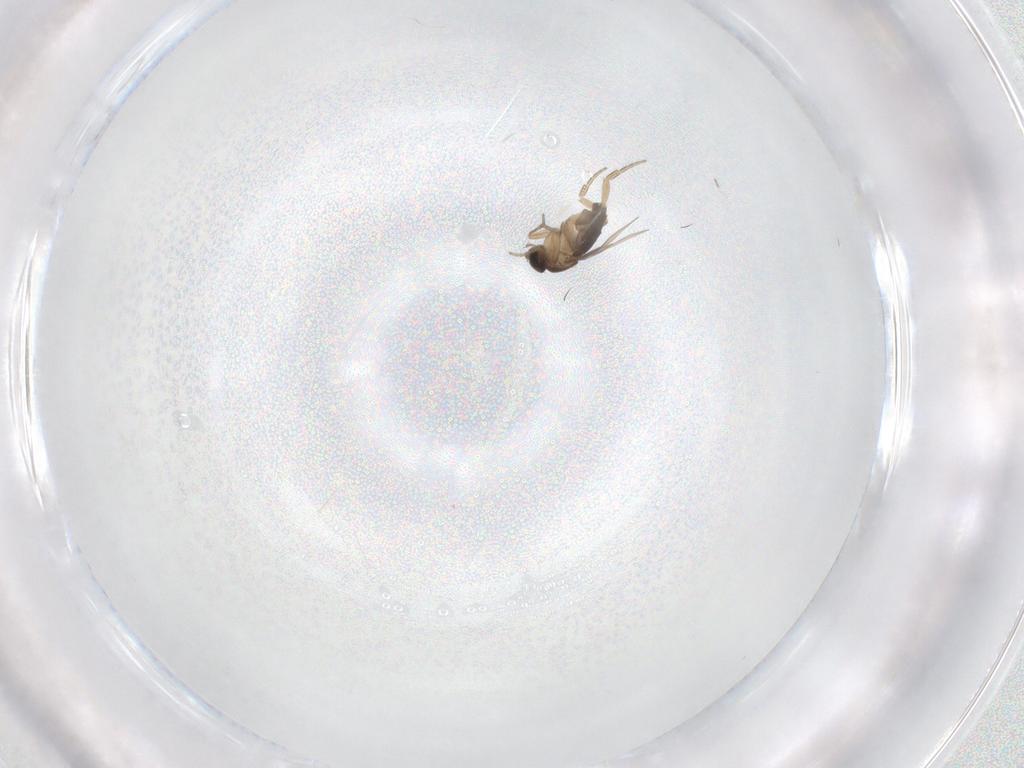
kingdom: Animalia
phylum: Arthropoda
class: Insecta
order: Diptera
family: Phoridae
